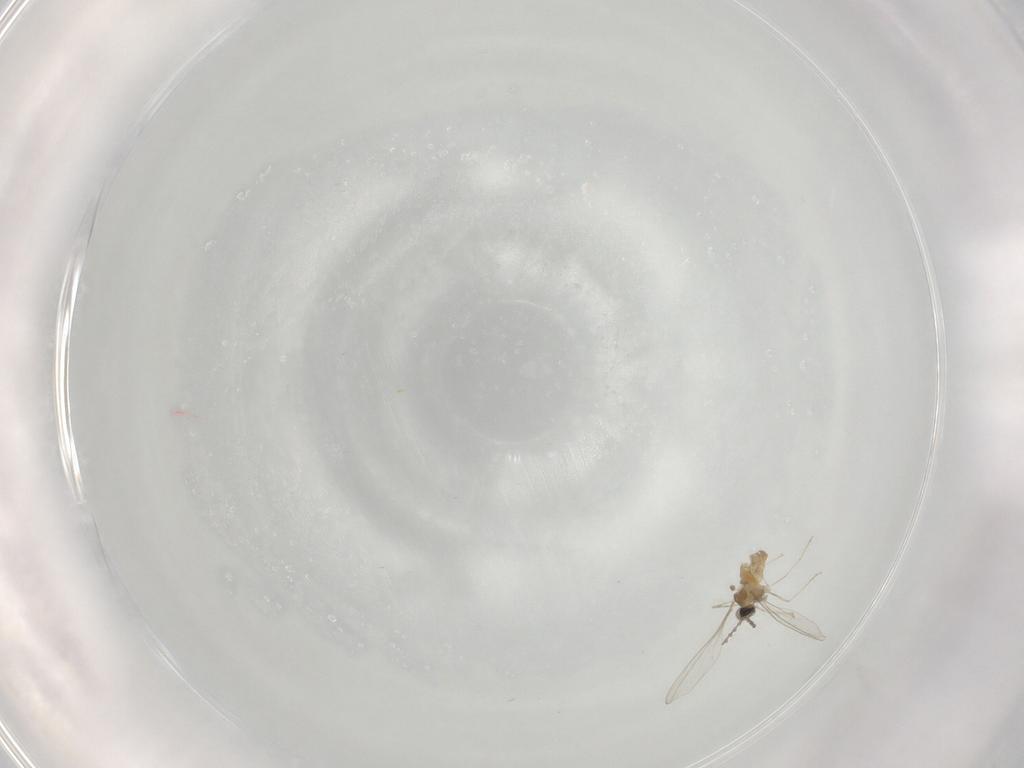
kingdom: Animalia
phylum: Arthropoda
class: Insecta
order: Diptera
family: Cecidomyiidae
